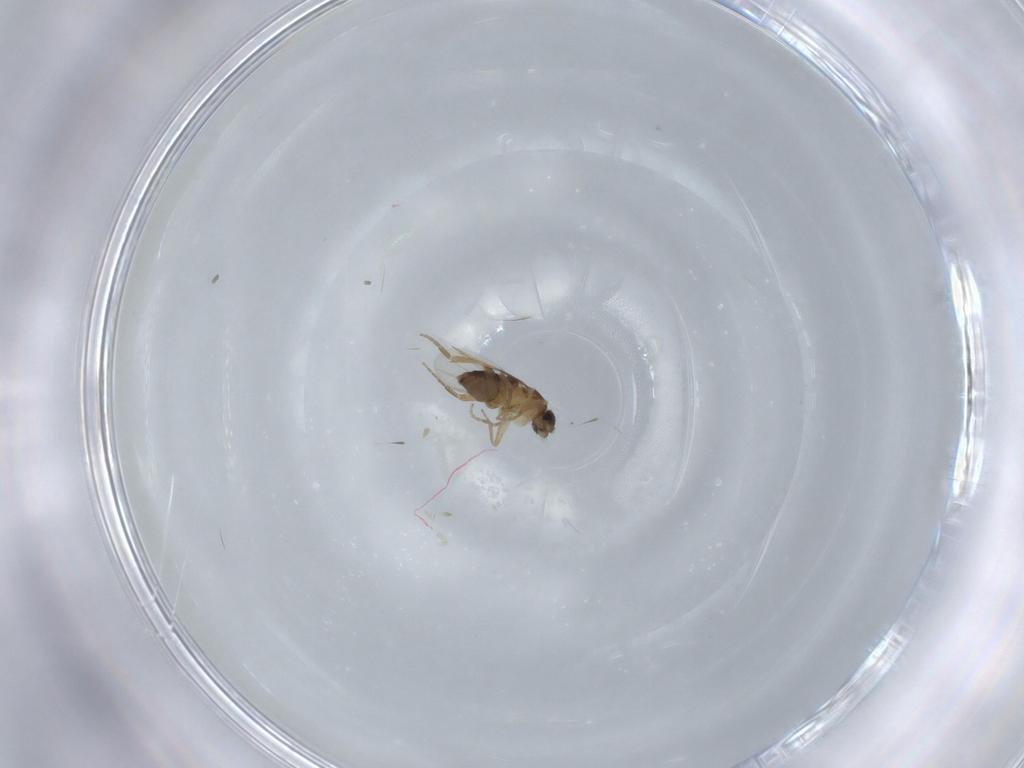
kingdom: Animalia
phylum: Arthropoda
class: Insecta
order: Diptera
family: Phoridae
